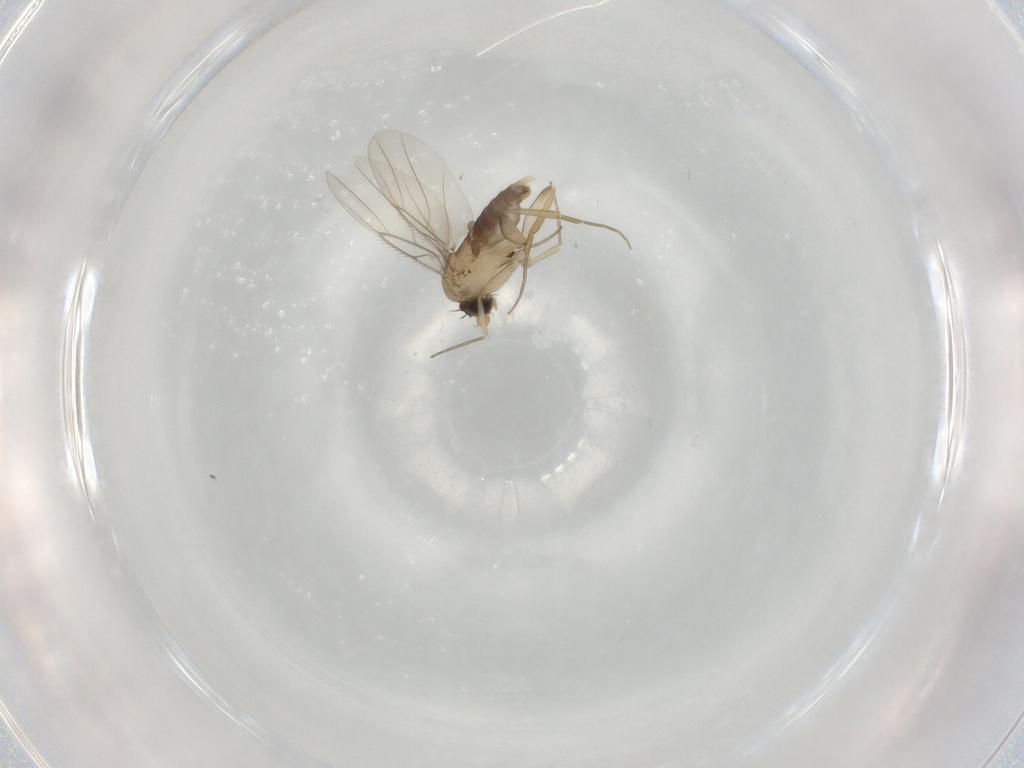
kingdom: Animalia
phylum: Arthropoda
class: Insecta
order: Diptera
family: Phoridae
